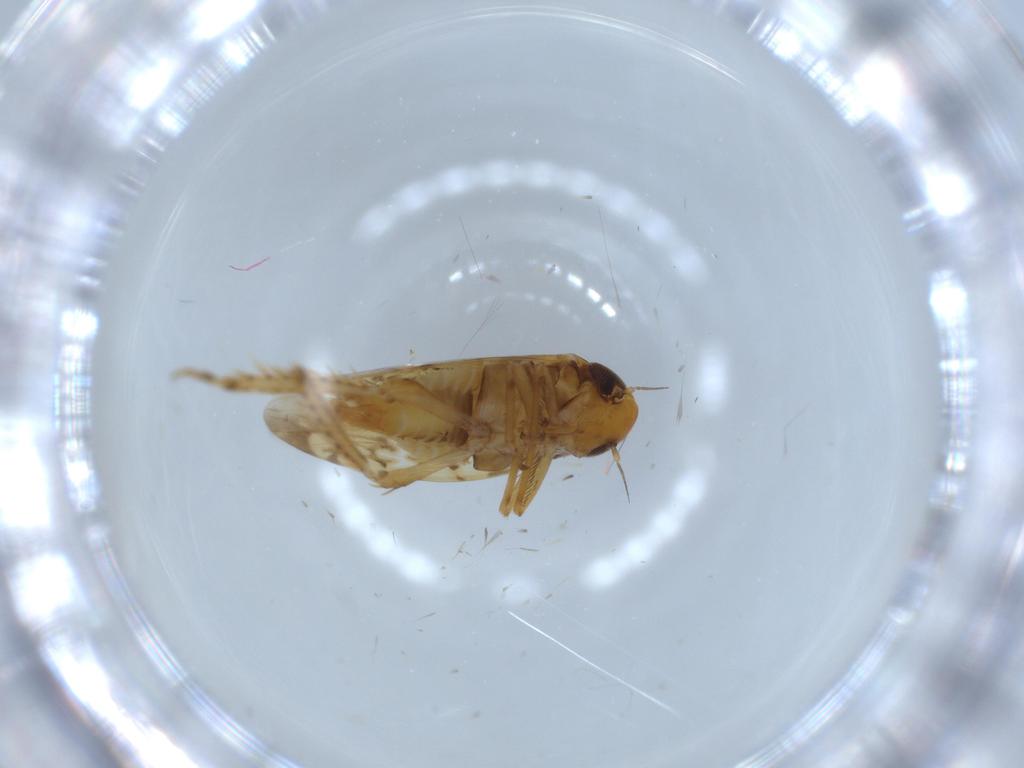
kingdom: Animalia
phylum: Arthropoda
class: Insecta
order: Hemiptera
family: Cicadellidae
